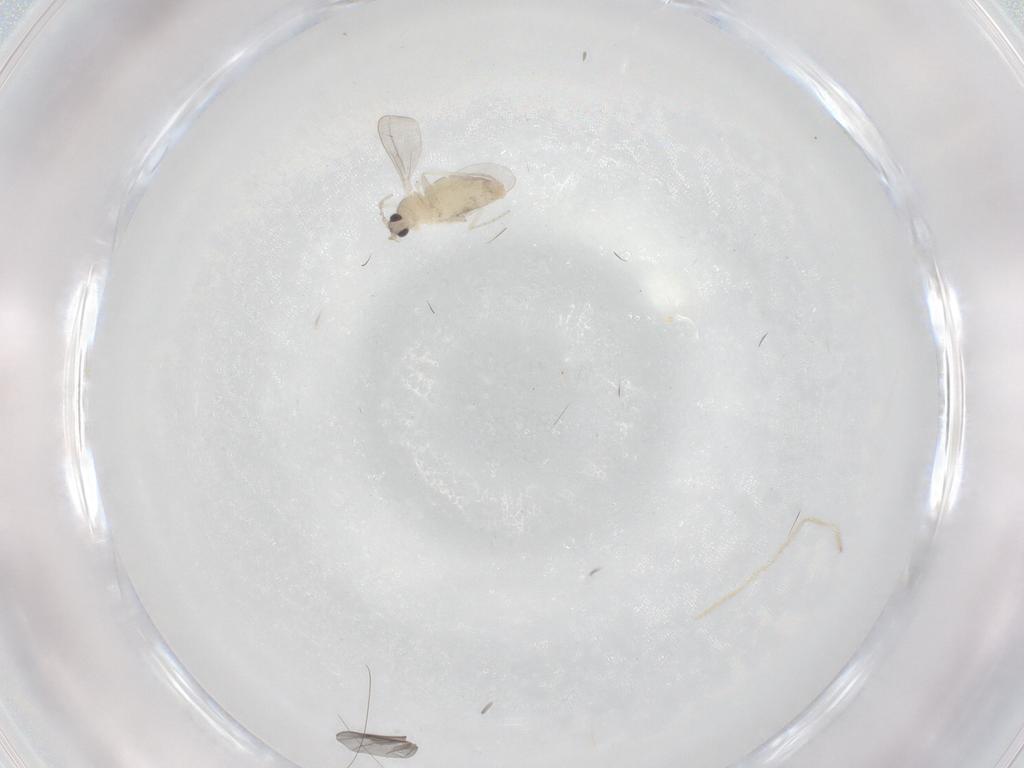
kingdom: Animalia
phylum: Arthropoda
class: Insecta
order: Diptera
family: Cecidomyiidae
